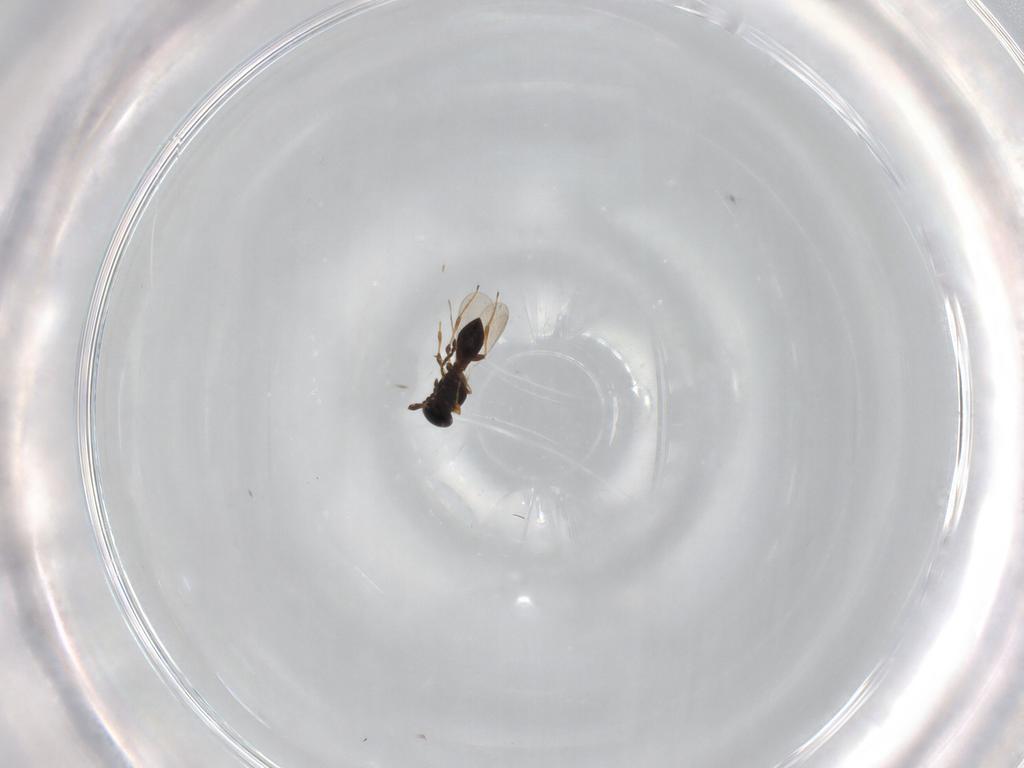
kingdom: Animalia
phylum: Arthropoda
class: Insecta
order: Hymenoptera
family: Platygastridae
